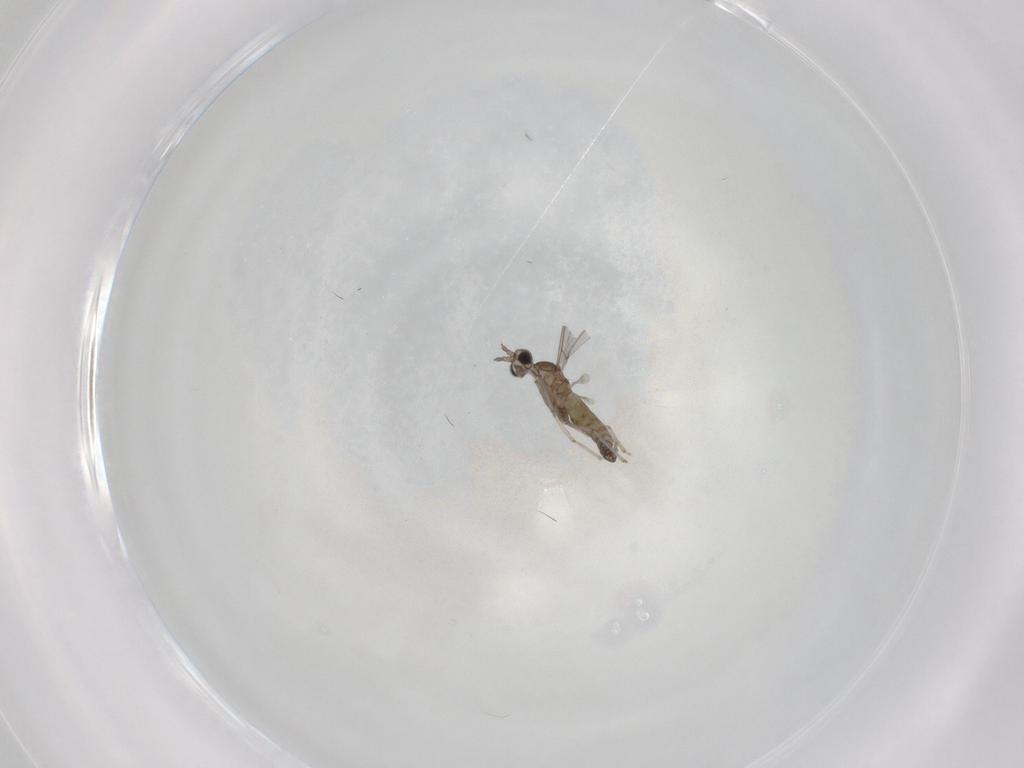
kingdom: Animalia
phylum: Arthropoda
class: Insecta
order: Diptera
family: Cecidomyiidae
